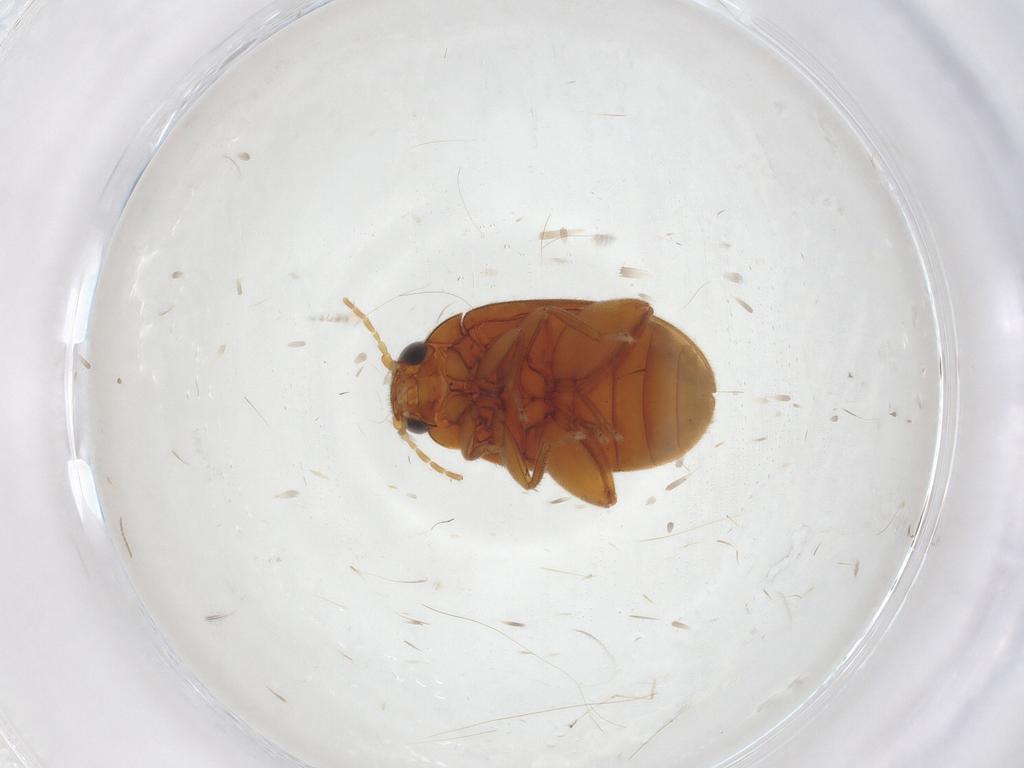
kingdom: Animalia
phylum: Arthropoda
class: Insecta
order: Coleoptera
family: Scirtidae
